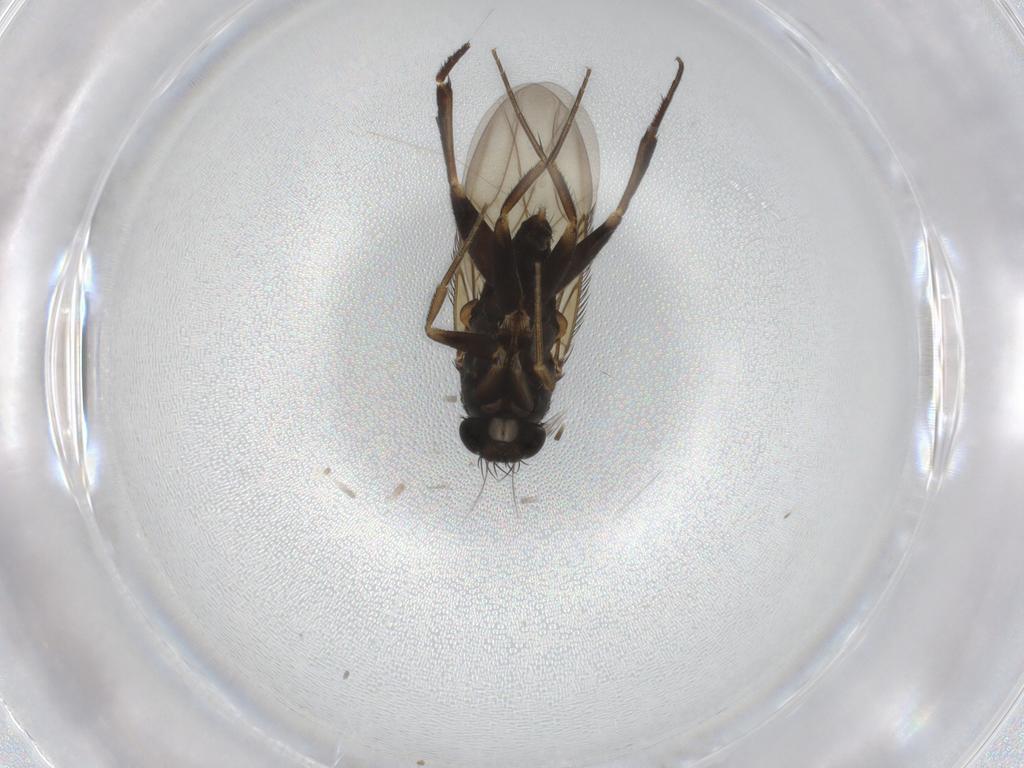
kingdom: Animalia
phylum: Arthropoda
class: Insecta
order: Diptera
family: Phoridae
